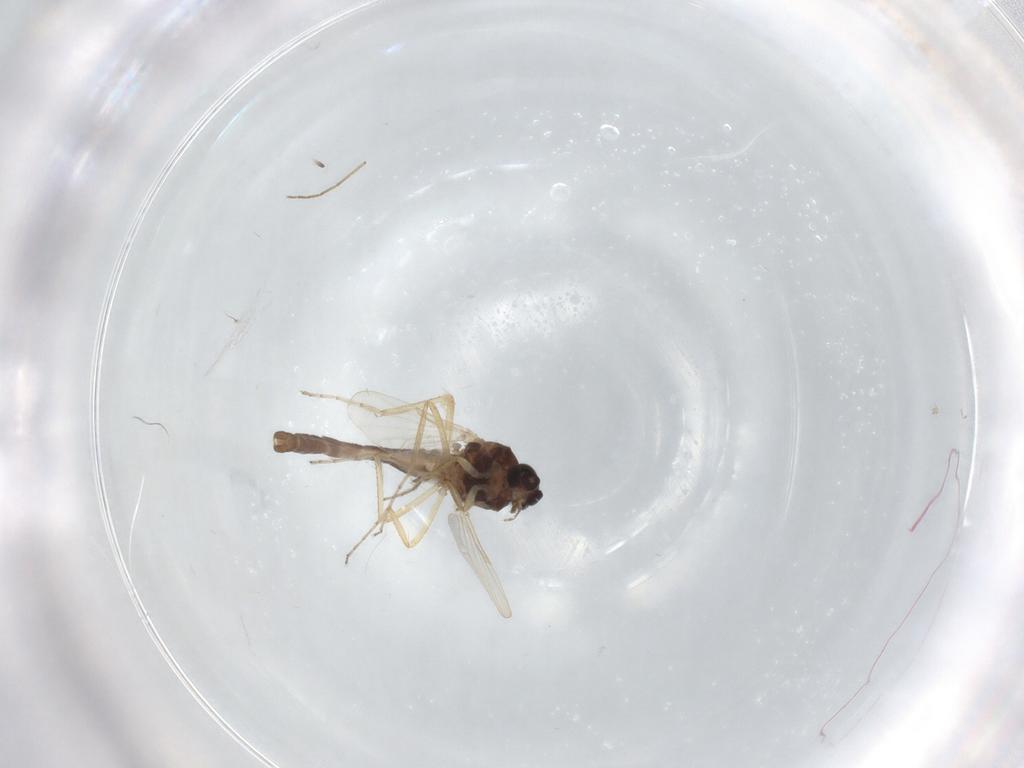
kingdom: Animalia
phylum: Arthropoda
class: Insecta
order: Diptera
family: Ceratopogonidae
